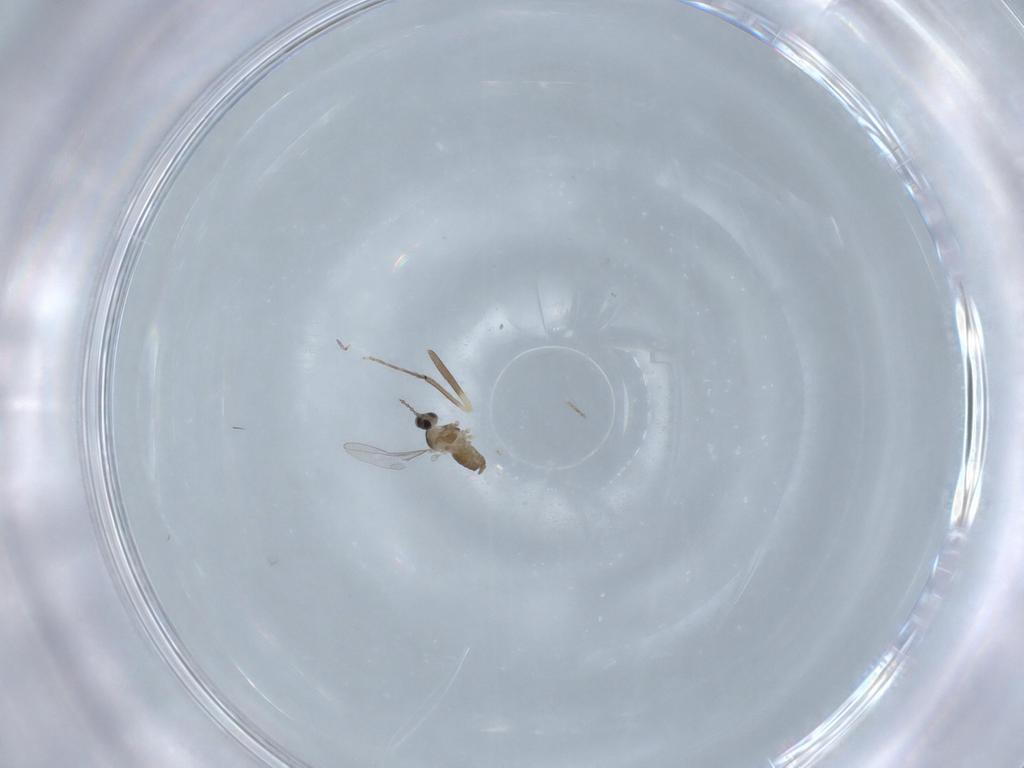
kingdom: Animalia
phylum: Arthropoda
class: Insecta
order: Diptera
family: Chironomidae
